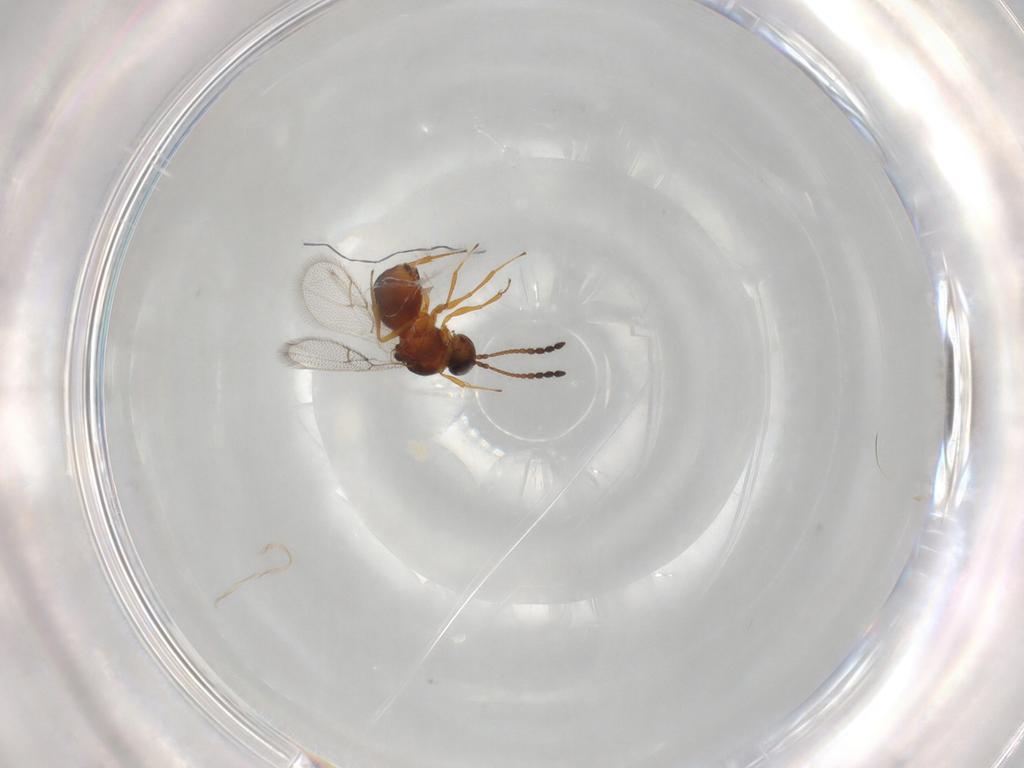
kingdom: Animalia
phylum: Arthropoda
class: Insecta
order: Hymenoptera
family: Figitidae
